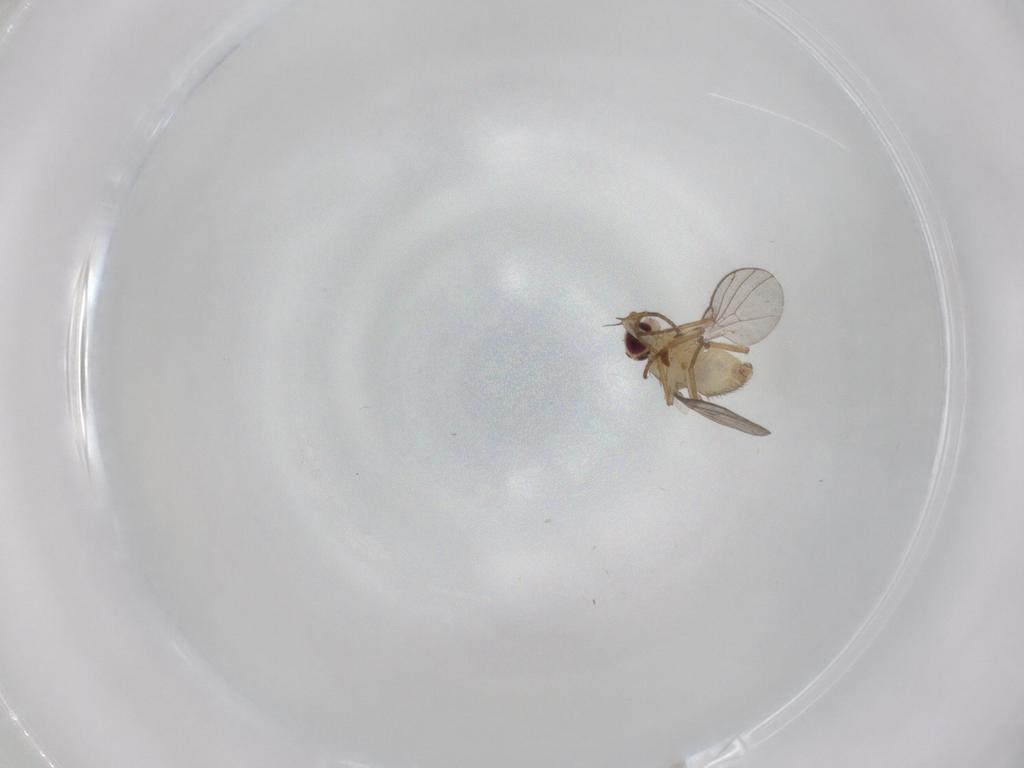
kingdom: Animalia
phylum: Arthropoda
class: Insecta
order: Diptera
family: Agromyzidae
